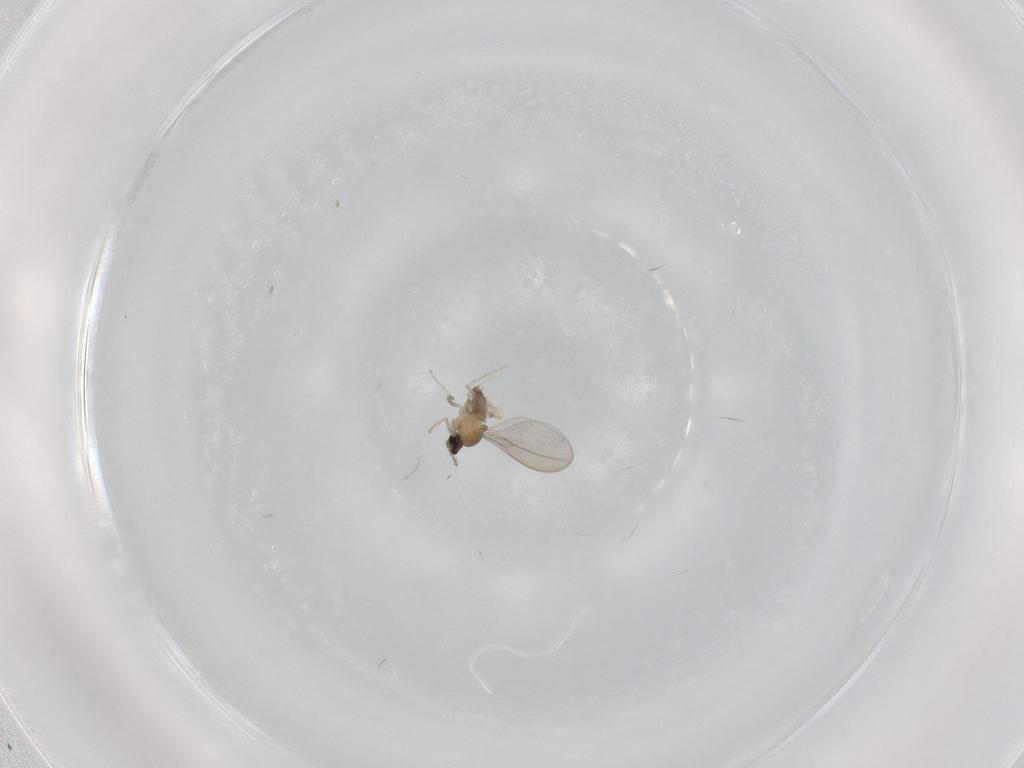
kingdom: Animalia
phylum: Arthropoda
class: Insecta
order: Diptera
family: Cecidomyiidae
